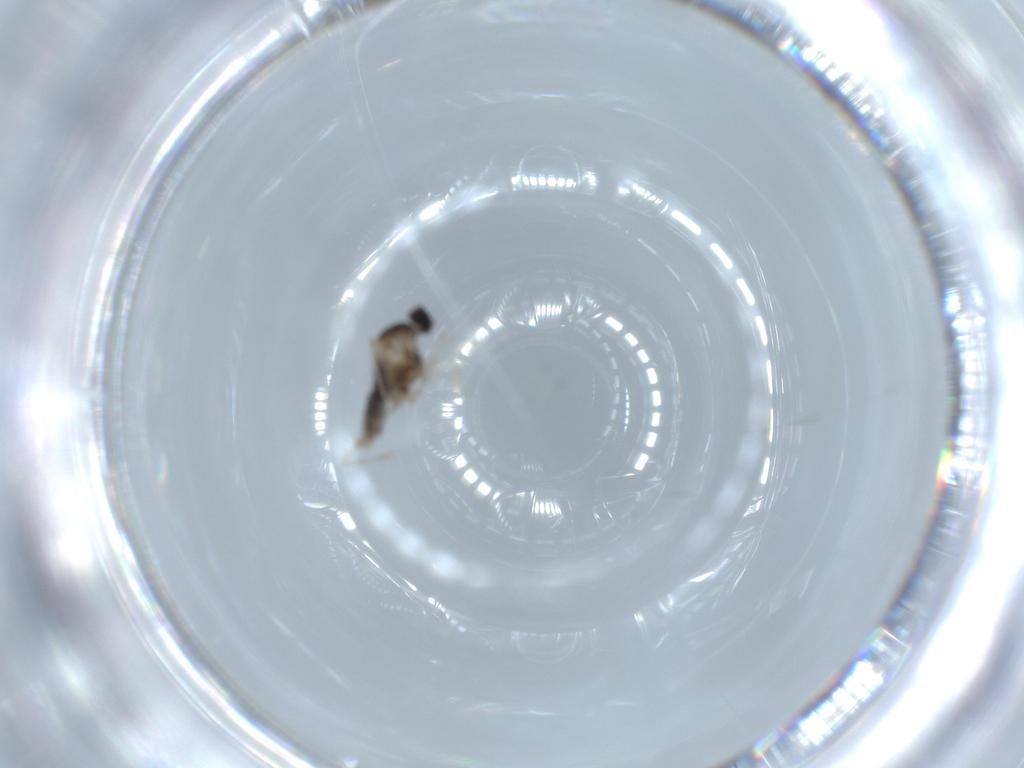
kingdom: Animalia
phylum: Arthropoda
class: Insecta
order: Diptera
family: Cecidomyiidae
